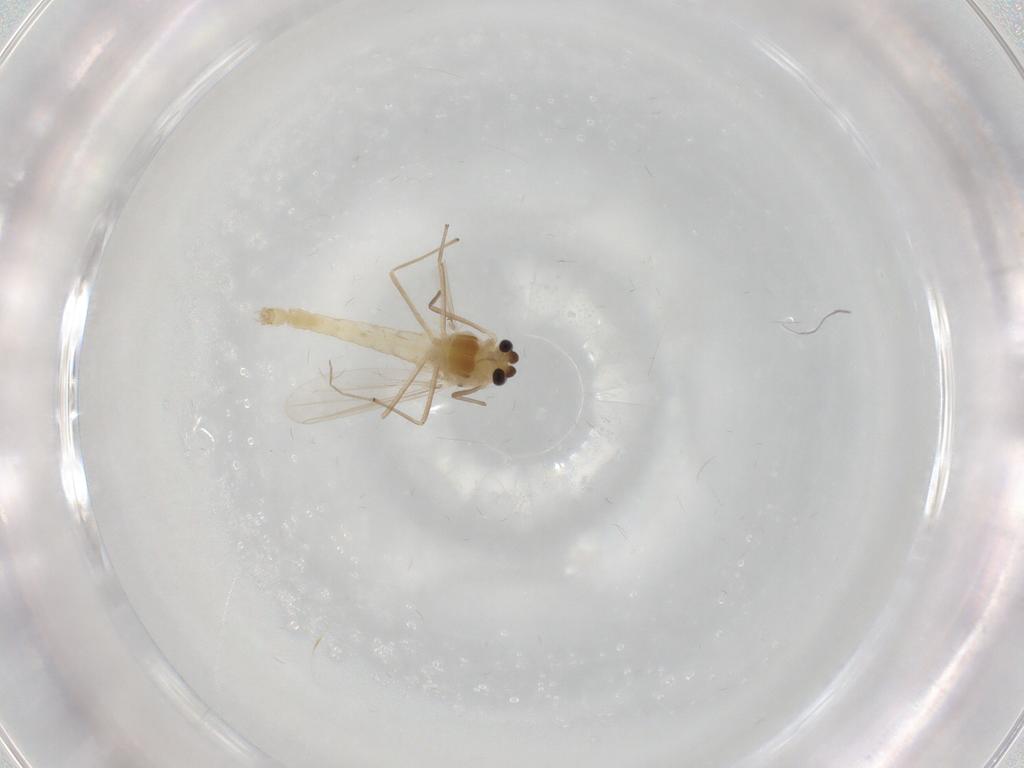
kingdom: Animalia
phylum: Arthropoda
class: Insecta
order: Diptera
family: Chironomidae
